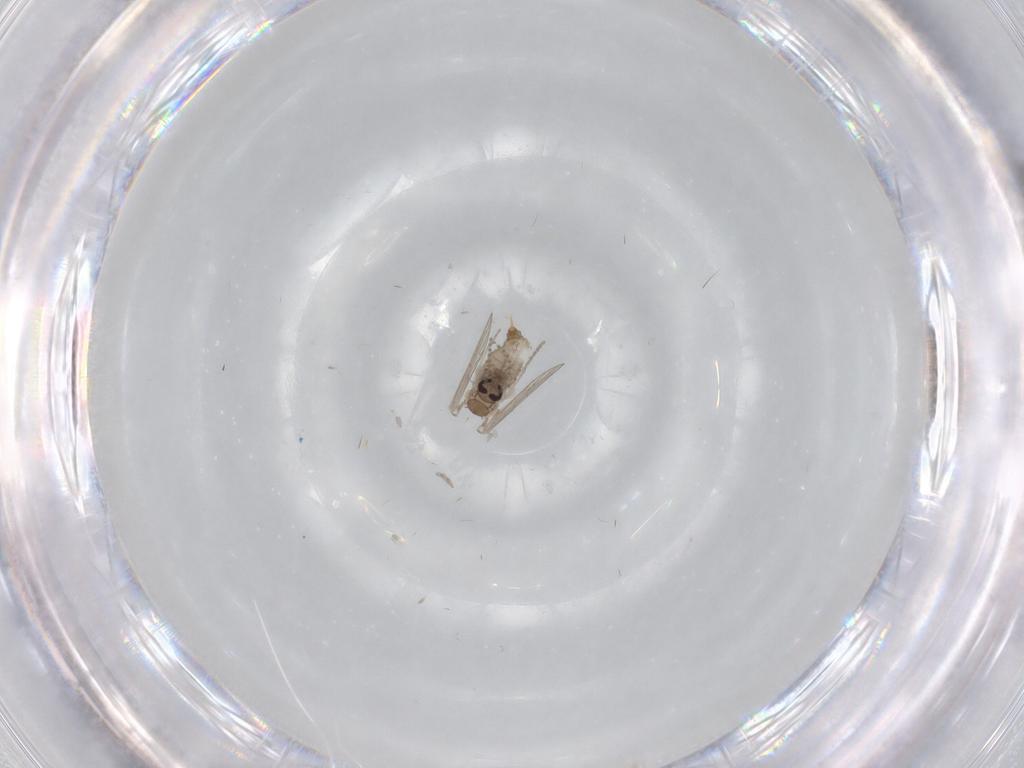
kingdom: Animalia
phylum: Arthropoda
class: Insecta
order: Diptera
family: Psychodidae
